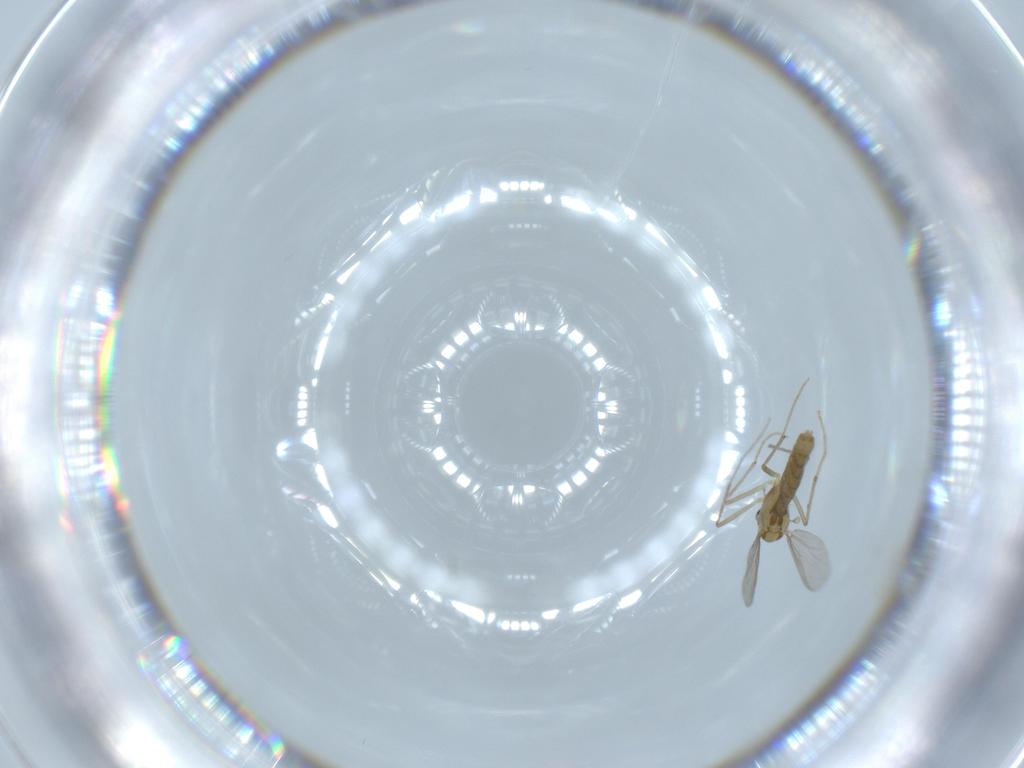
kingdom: Animalia
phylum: Arthropoda
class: Insecta
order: Diptera
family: Chironomidae
